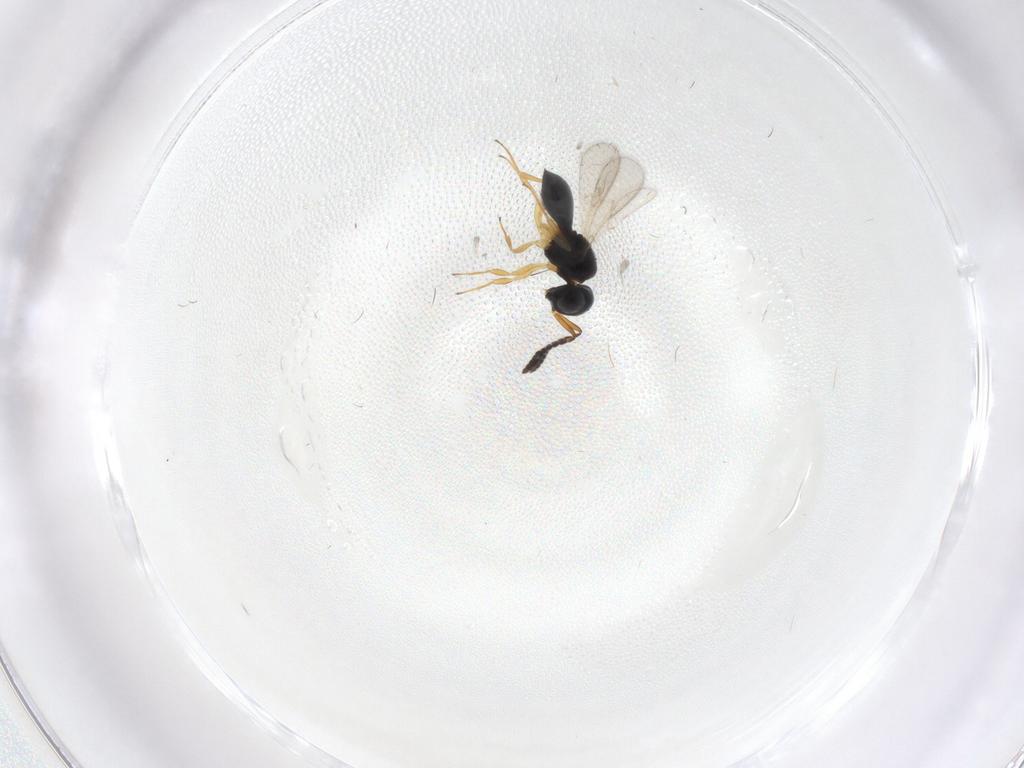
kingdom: Animalia
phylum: Arthropoda
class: Insecta
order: Hymenoptera
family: Scelionidae
